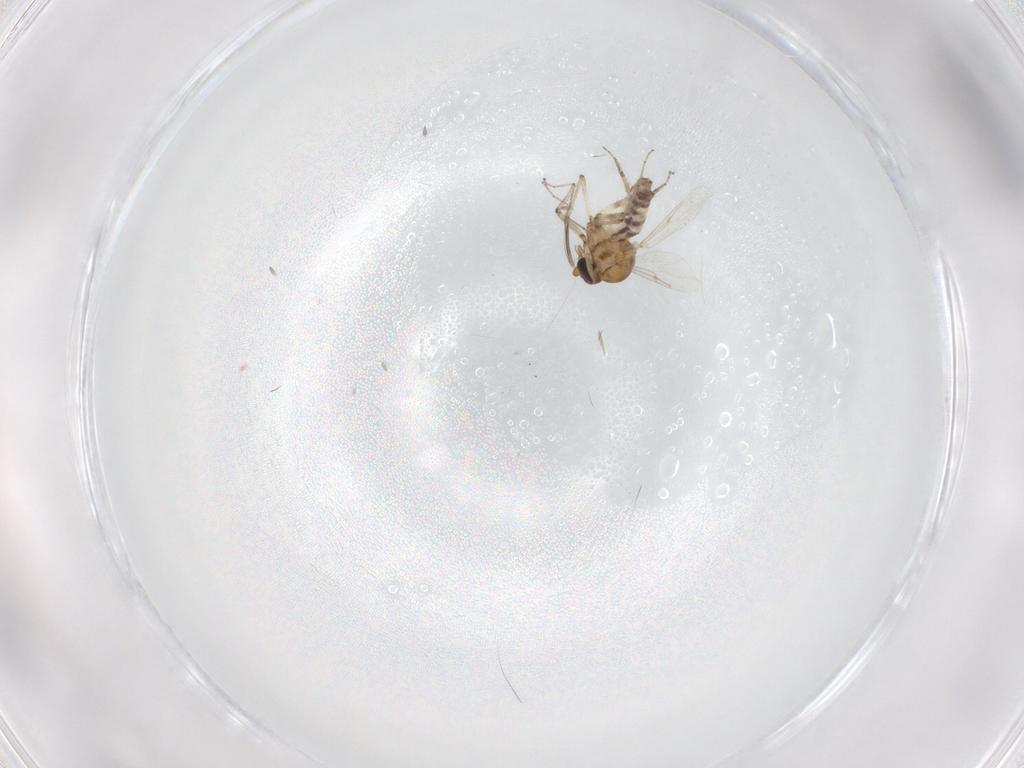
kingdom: Animalia
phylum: Arthropoda
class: Insecta
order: Diptera
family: Ceratopogonidae
